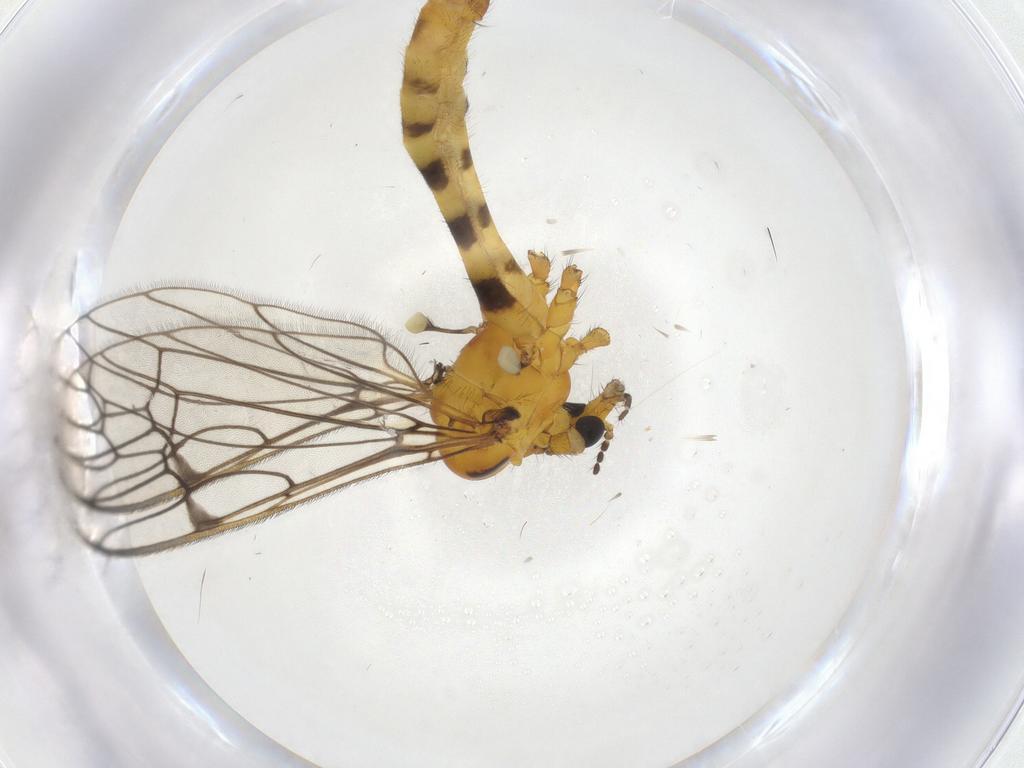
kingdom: Animalia
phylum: Arthropoda
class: Insecta
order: Diptera
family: Limoniidae
